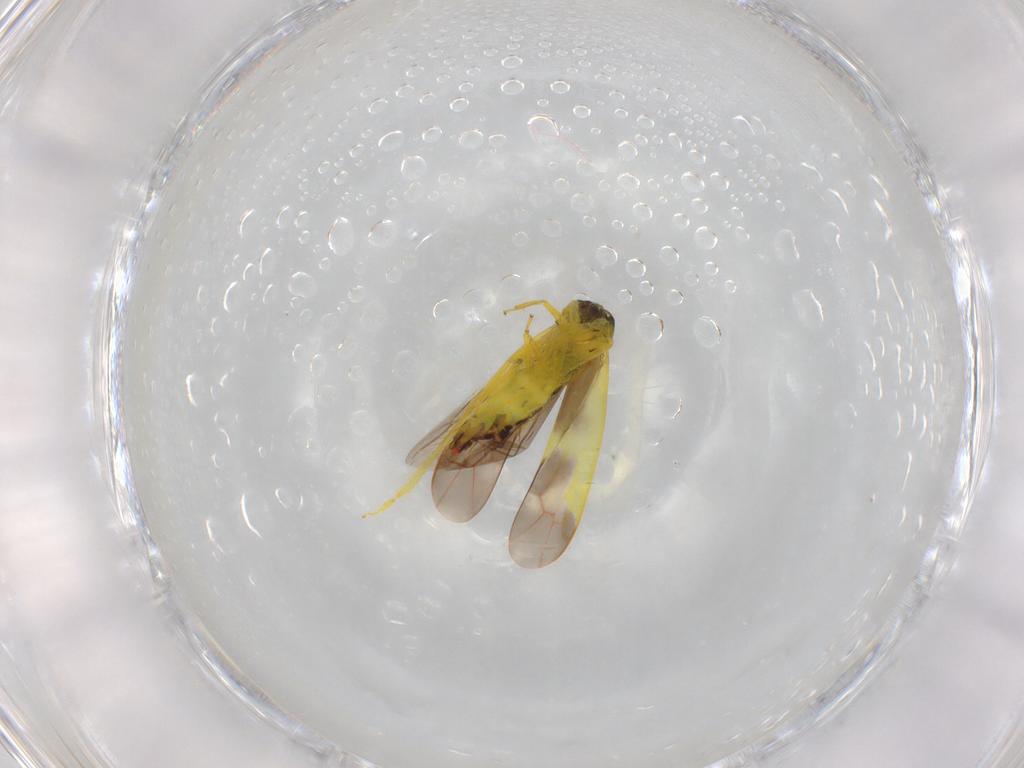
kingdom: Animalia
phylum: Arthropoda
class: Insecta
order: Hemiptera
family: Cicadellidae
